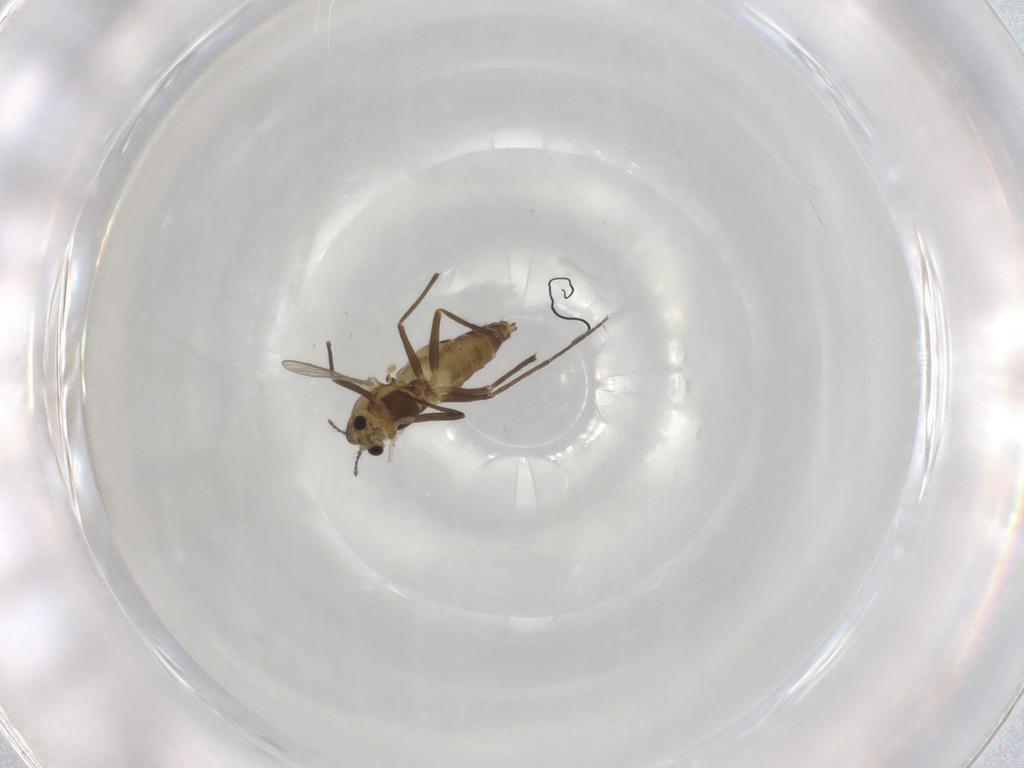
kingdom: Animalia
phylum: Arthropoda
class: Insecta
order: Diptera
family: Chironomidae
